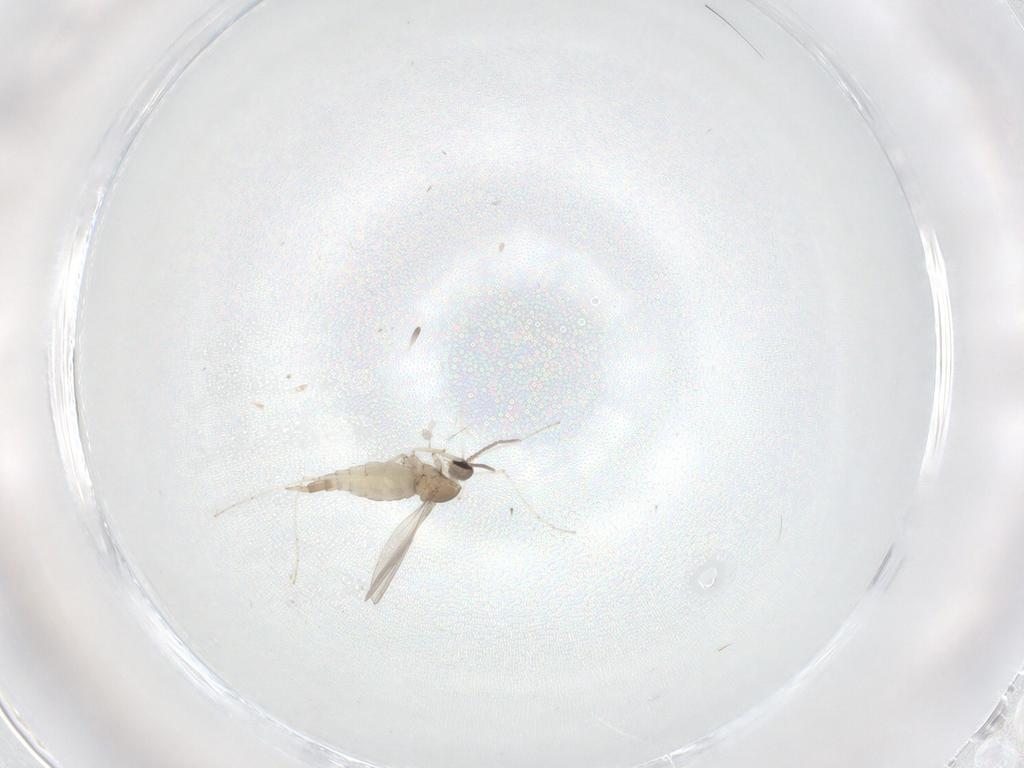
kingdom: Animalia
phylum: Arthropoda
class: Insecta
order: Diptera
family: Cecidomyiidae
